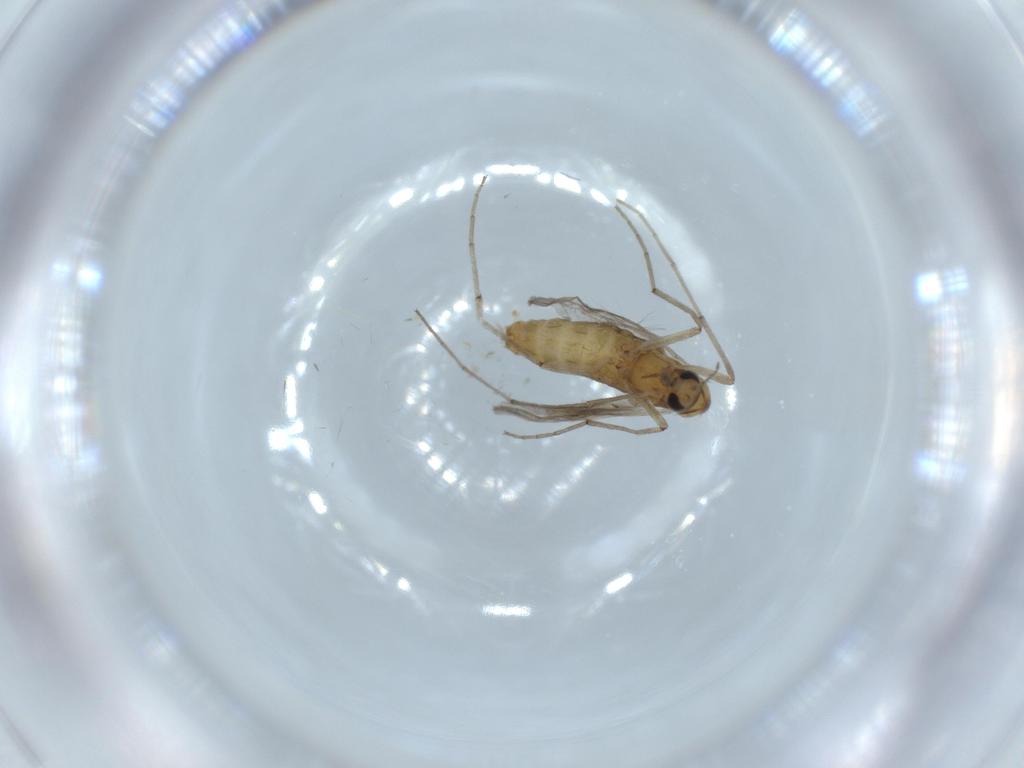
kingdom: Animalia
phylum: Arthropoda
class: Insecta
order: Diptera
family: Chironomidae
